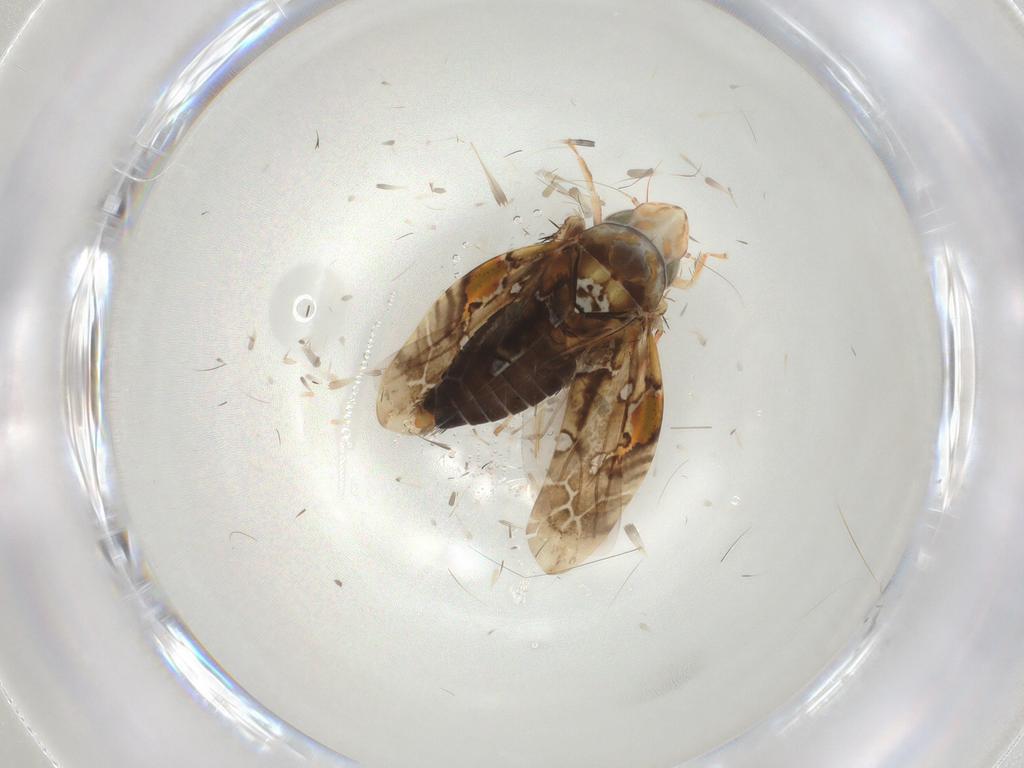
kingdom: Animalia
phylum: Arthropoda
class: Insecta
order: Hemiptera
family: Cicadellidae
